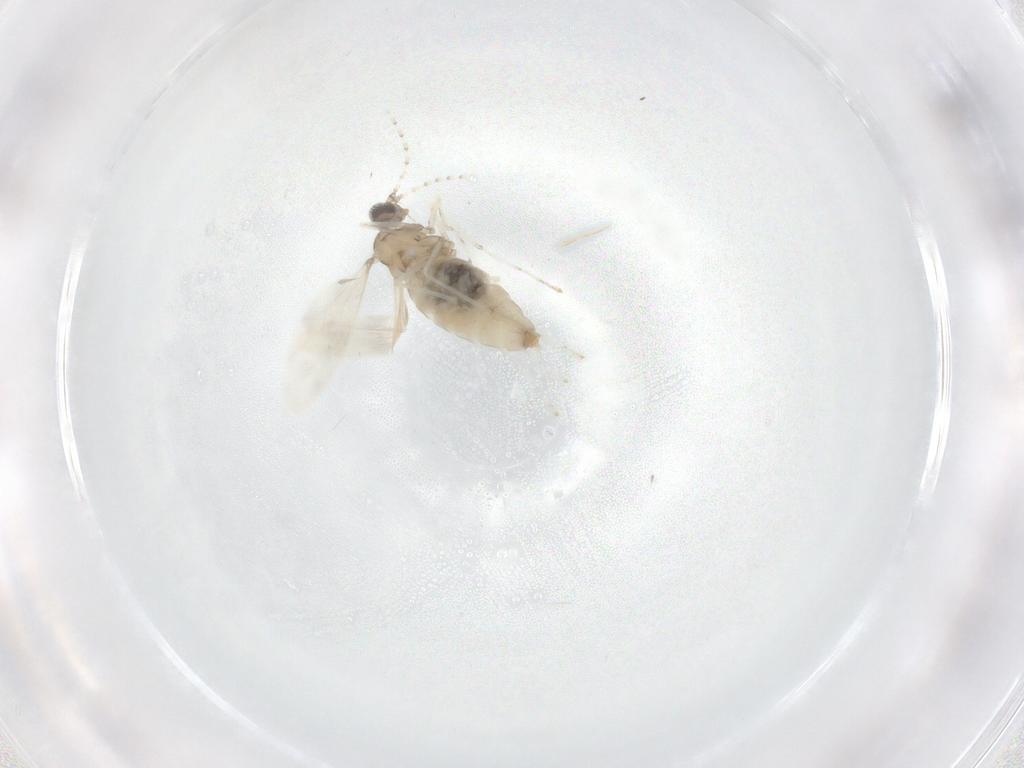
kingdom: Animalia
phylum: Arthropoda
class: Insecta
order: Diptera
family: Cecidomyiidae
